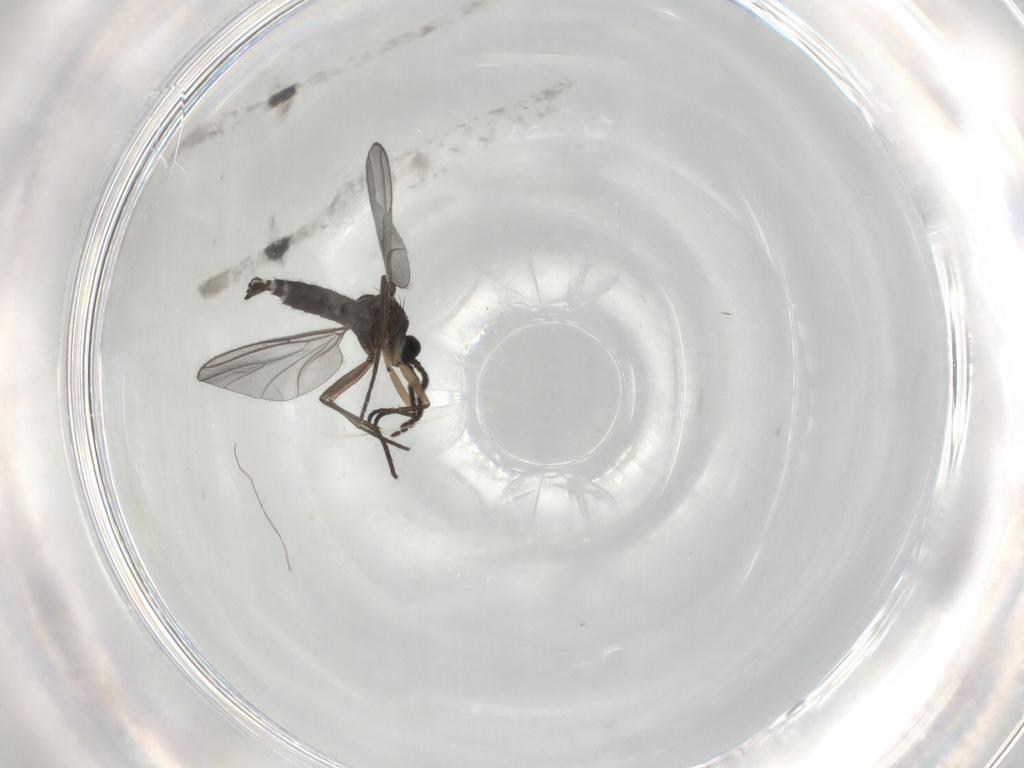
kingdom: Animalia
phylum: Arthropoda
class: Insecta
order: Diptera
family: Sciaridae
